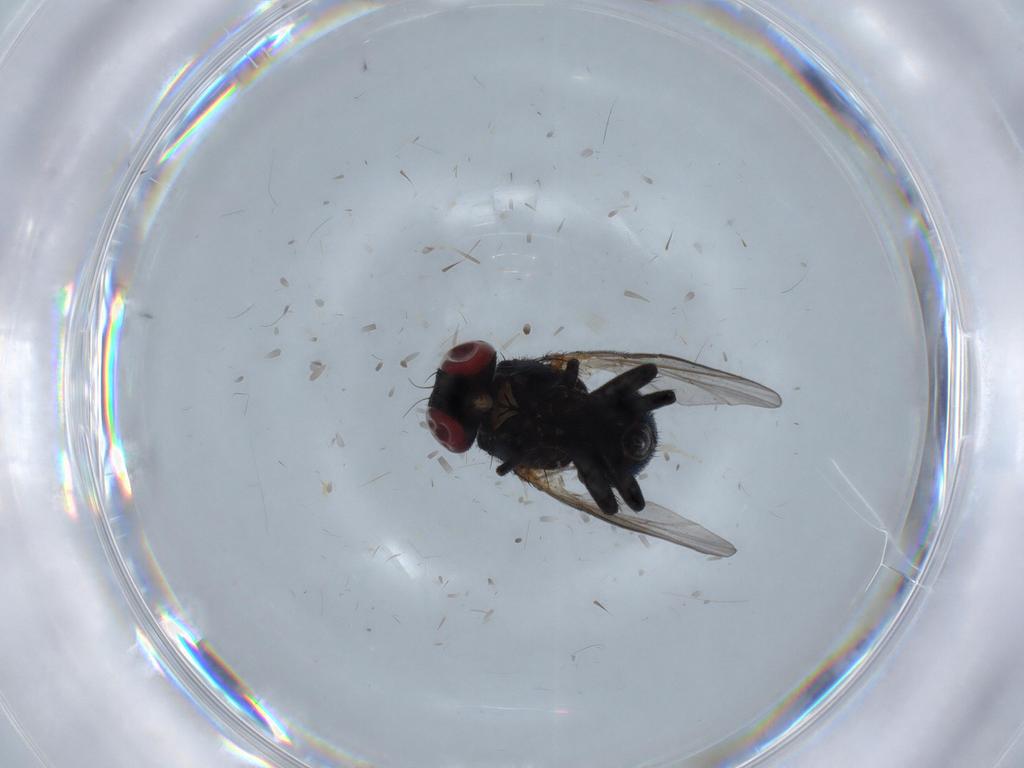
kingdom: Animalia
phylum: Arthropoda
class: Insecta
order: Diptera
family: Agromyzidae
